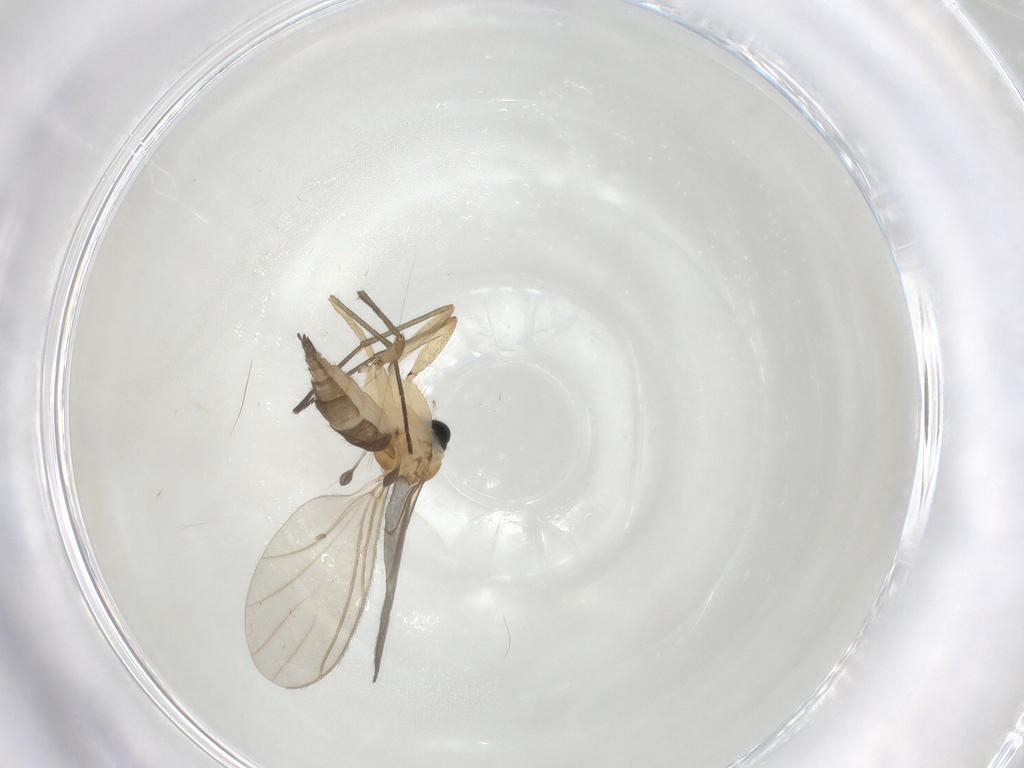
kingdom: Animalia
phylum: Arthropoda
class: Insecta
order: Diptera
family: Sciaridae
